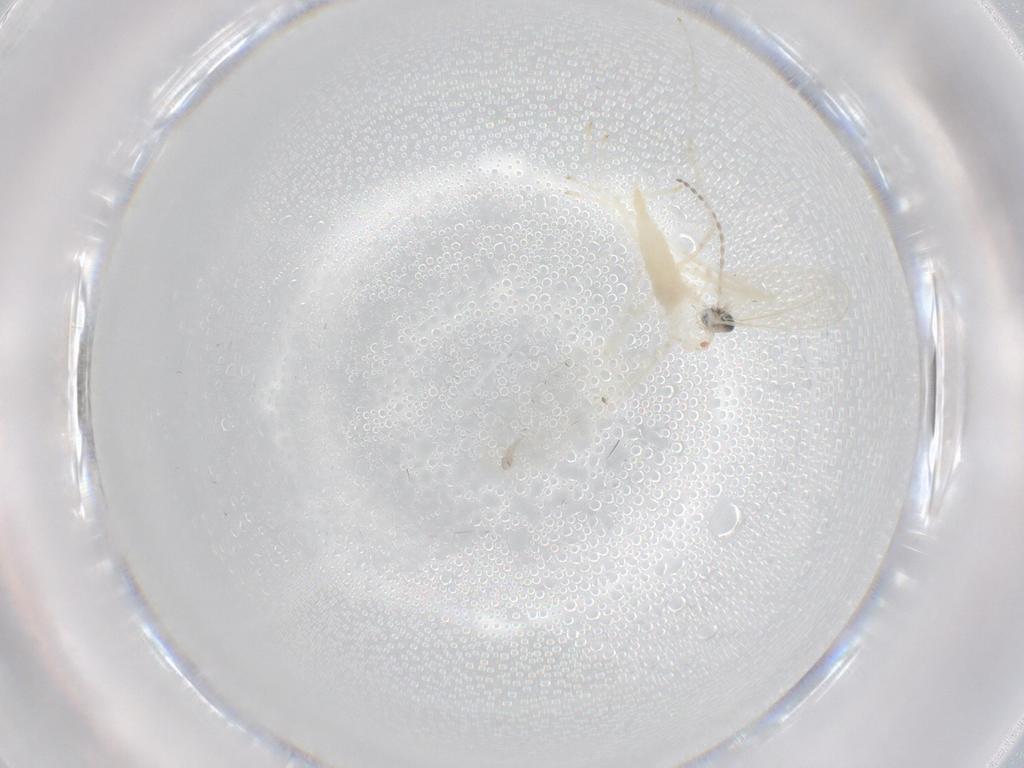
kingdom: Animalia
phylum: Arthropoda
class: Insecta
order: Diptera
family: Cecidomyiidae
